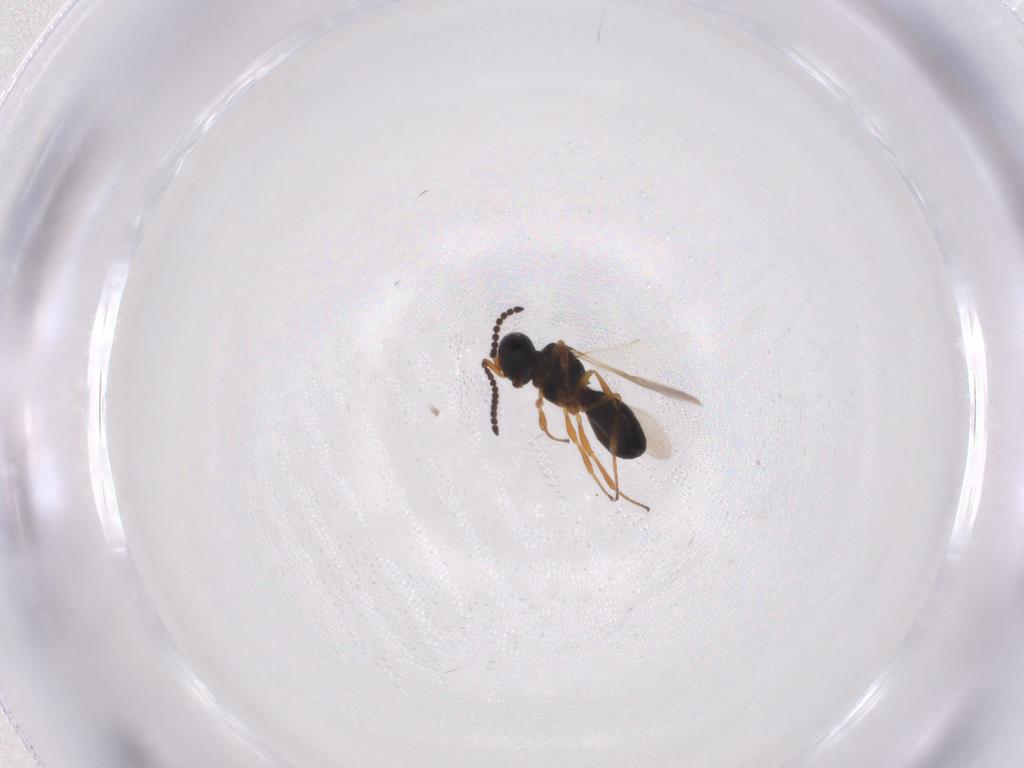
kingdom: Animalia
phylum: Arthropoda
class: Insecta
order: Hymenoptera
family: Scelionidae
